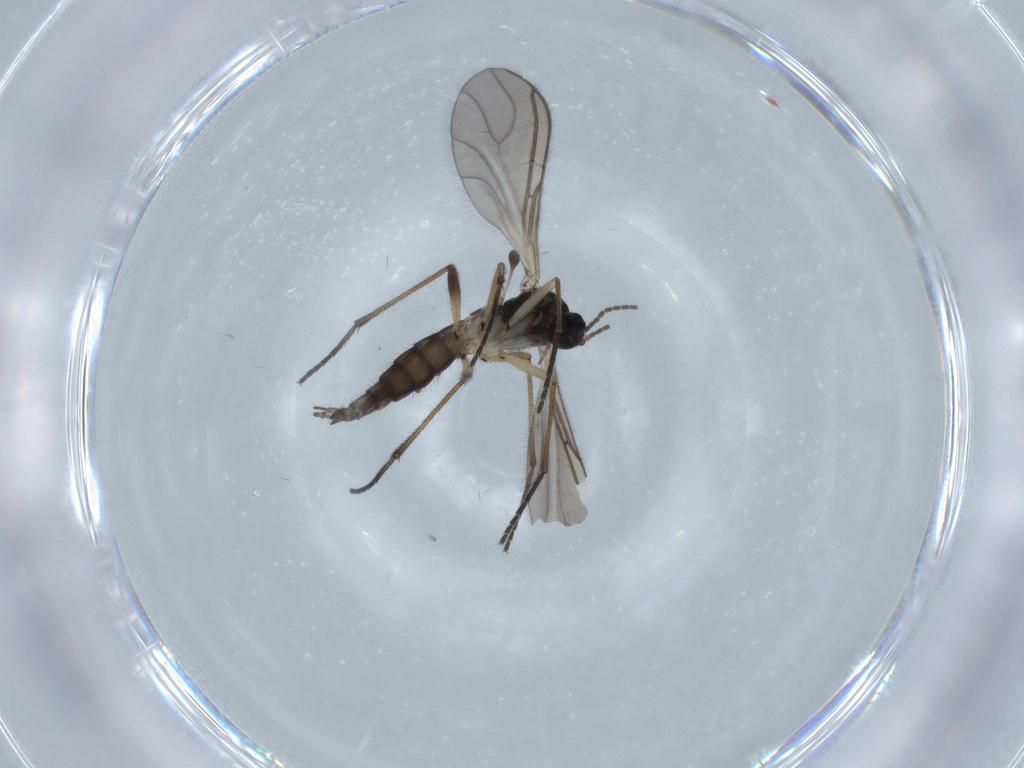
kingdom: Animalia
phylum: Arthropoda
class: Insecta
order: Diptera
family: Sciaridae
